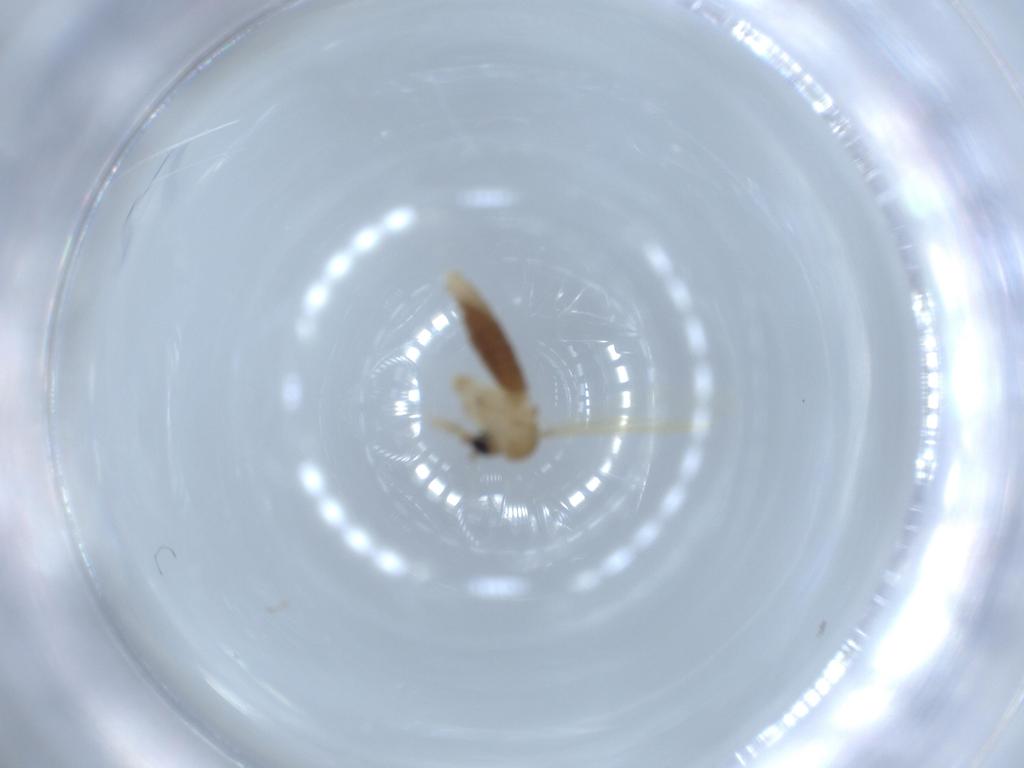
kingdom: Animalia
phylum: Arthropoda
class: Insecta
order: Diptera
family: Psychodidae
